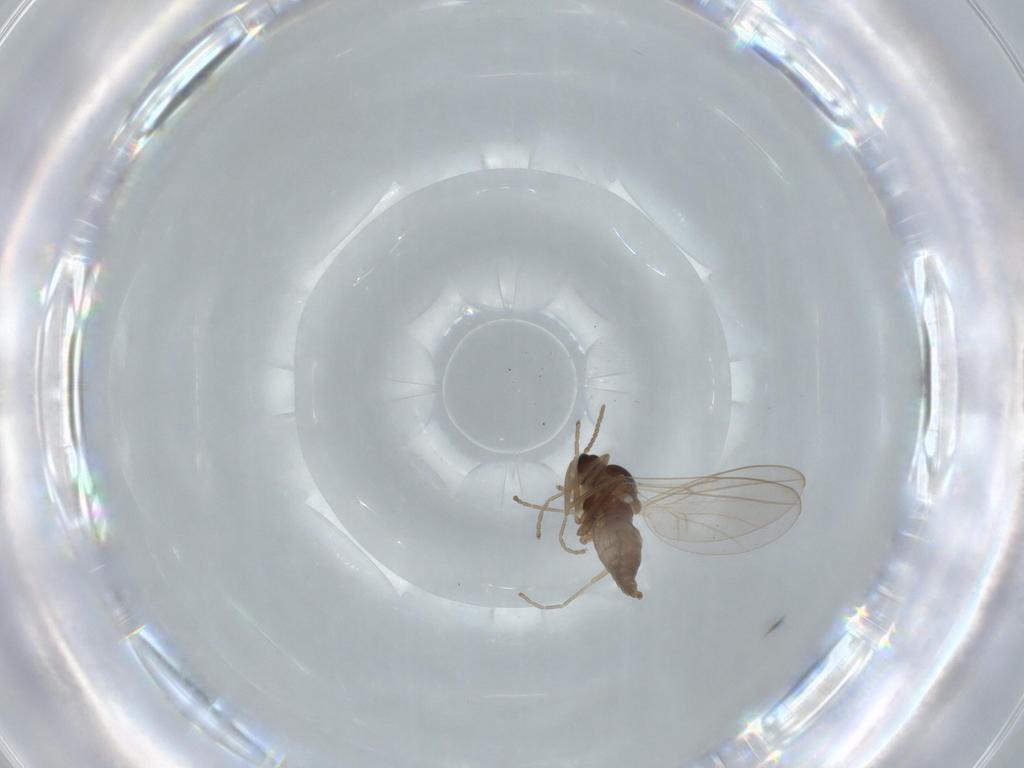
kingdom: Animalia
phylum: Arthropoda
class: Insecta
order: Diptera
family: Cecidomyiidae
